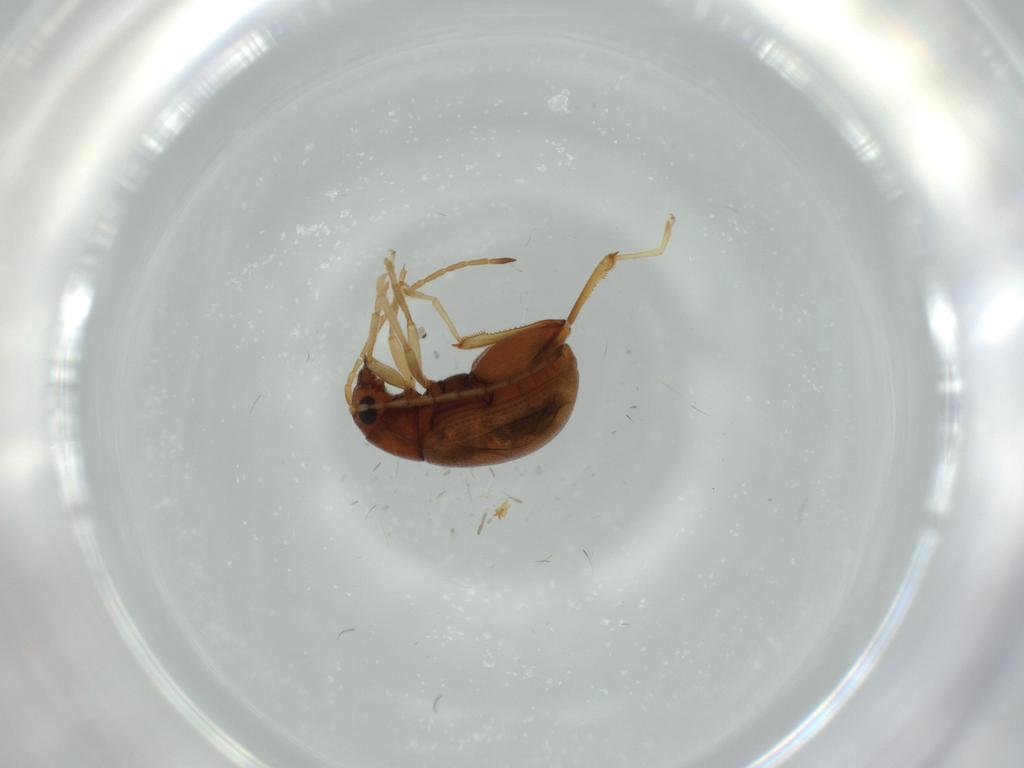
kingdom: Animalia
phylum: Arthropoda
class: Insecta
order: Coleoptera
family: Chrysomelidae
